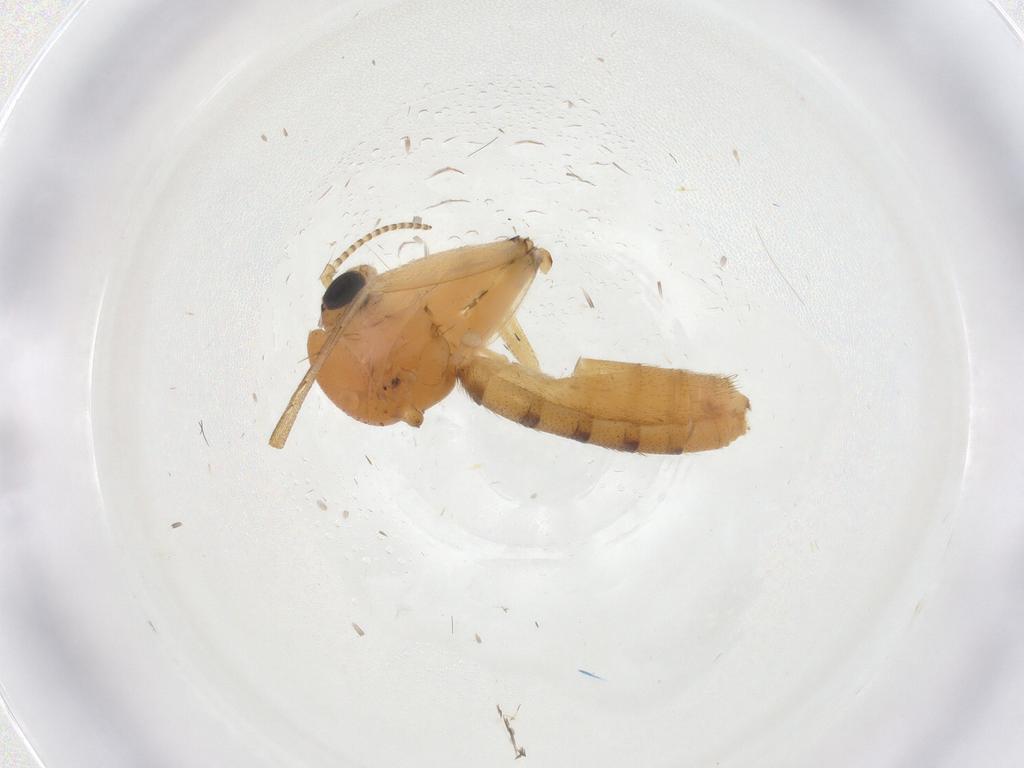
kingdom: Animalia
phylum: Arthropoda
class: Insecta
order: Diptera
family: Mycetophilidae
